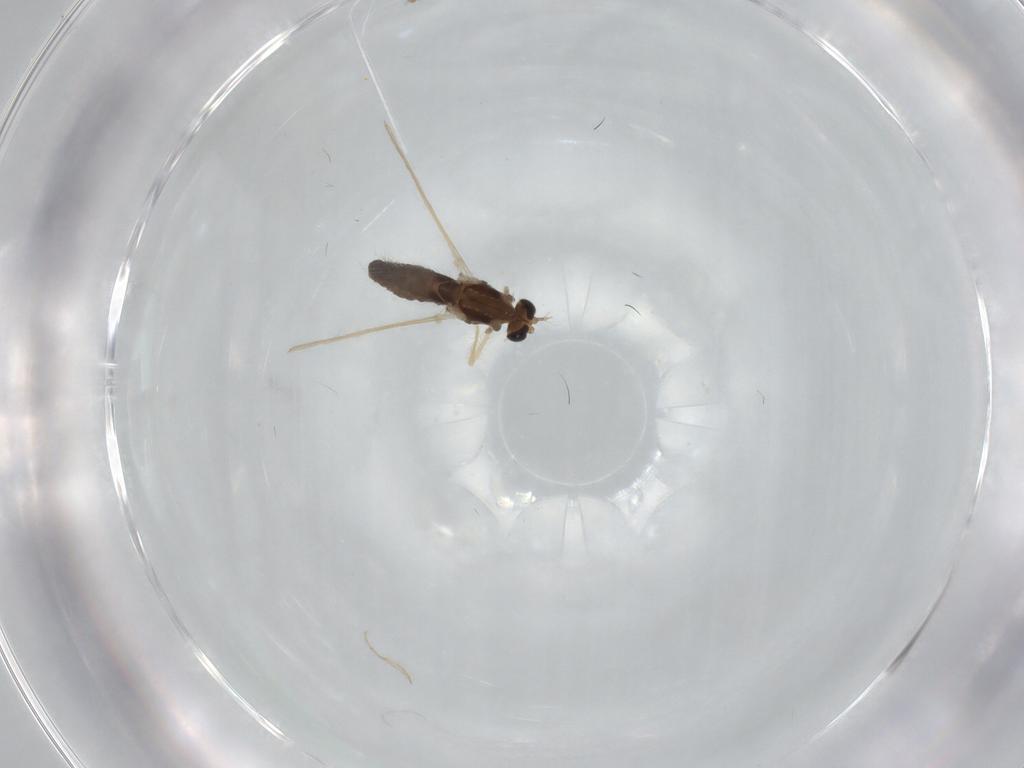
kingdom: Animalia
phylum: Arthropoda
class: Insecta
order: Diptera
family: Chironomidae
